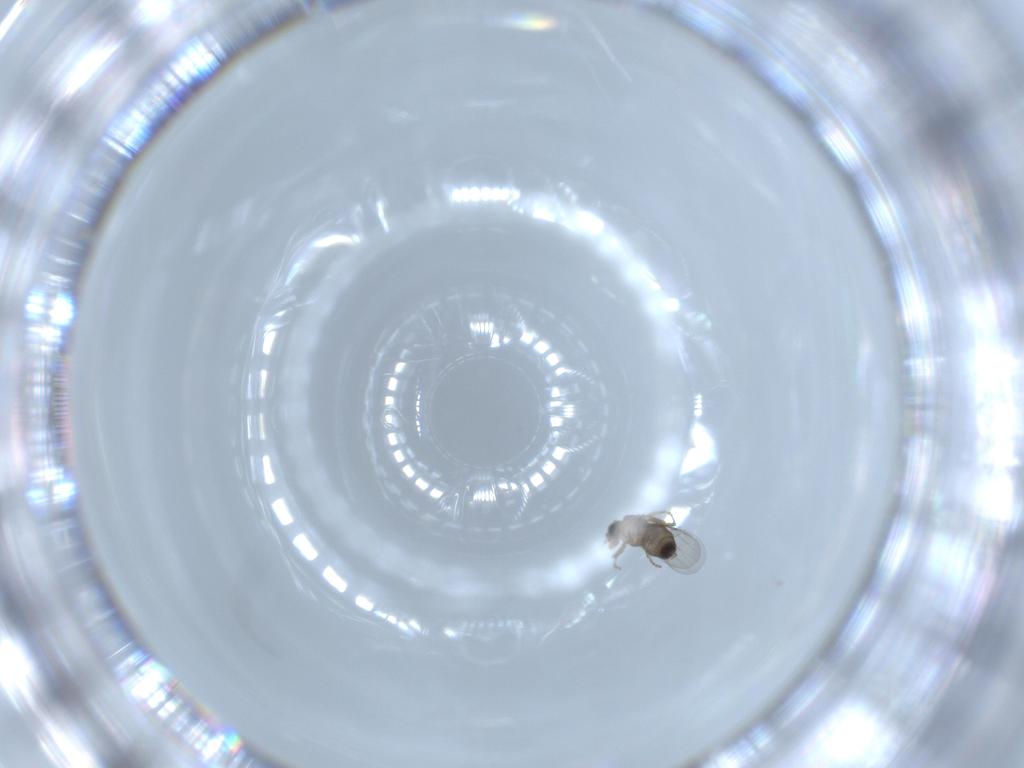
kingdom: Animalia
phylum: Arthropoda
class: Insecta
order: Diptera
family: Phoridae
